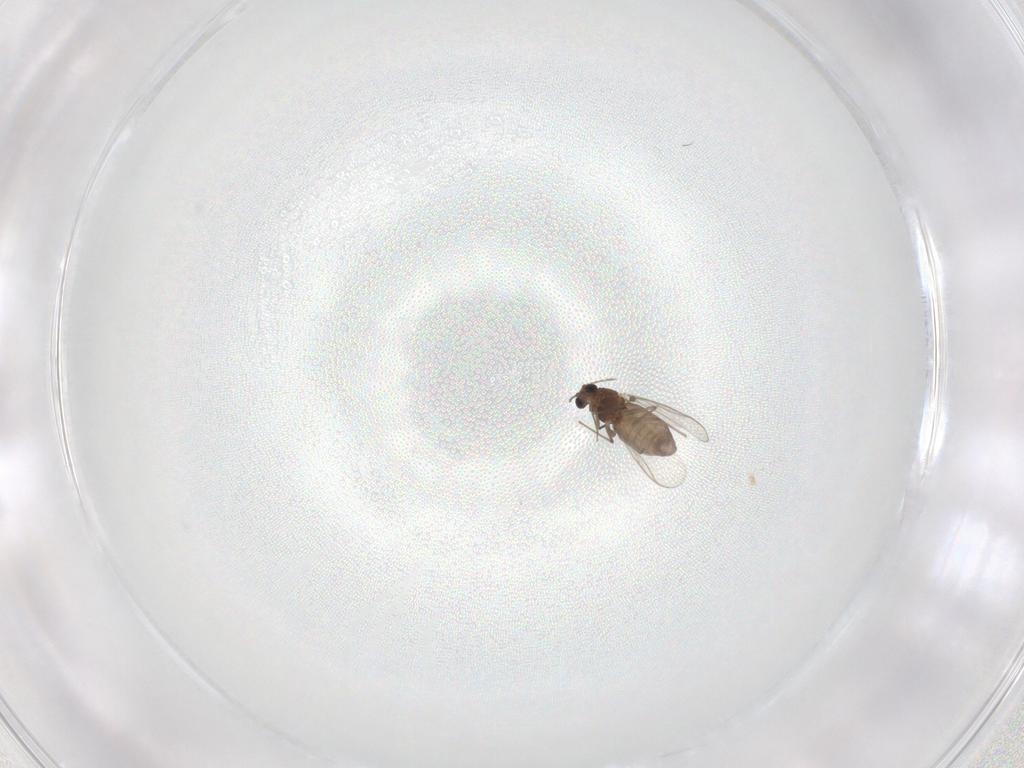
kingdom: Animalia
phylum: Arthropoda
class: Insecta
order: Diptera
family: Chironomidae
